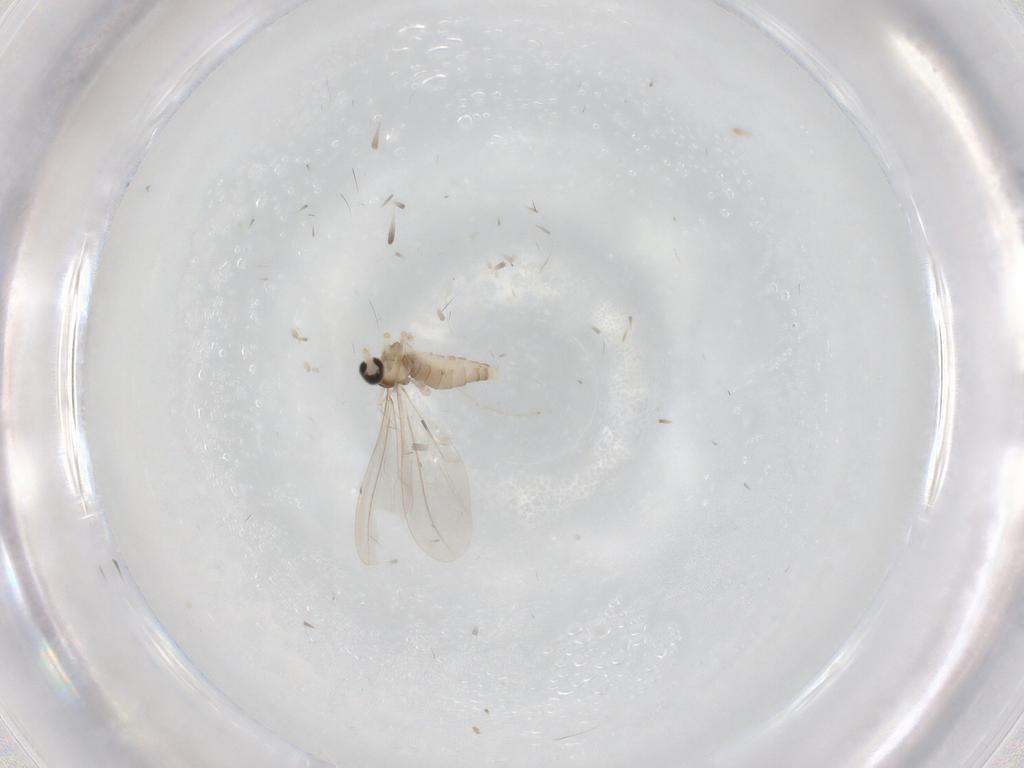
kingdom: Animalia
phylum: Arthropoda
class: Insecta
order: Diptera
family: Cecidomyiidae
